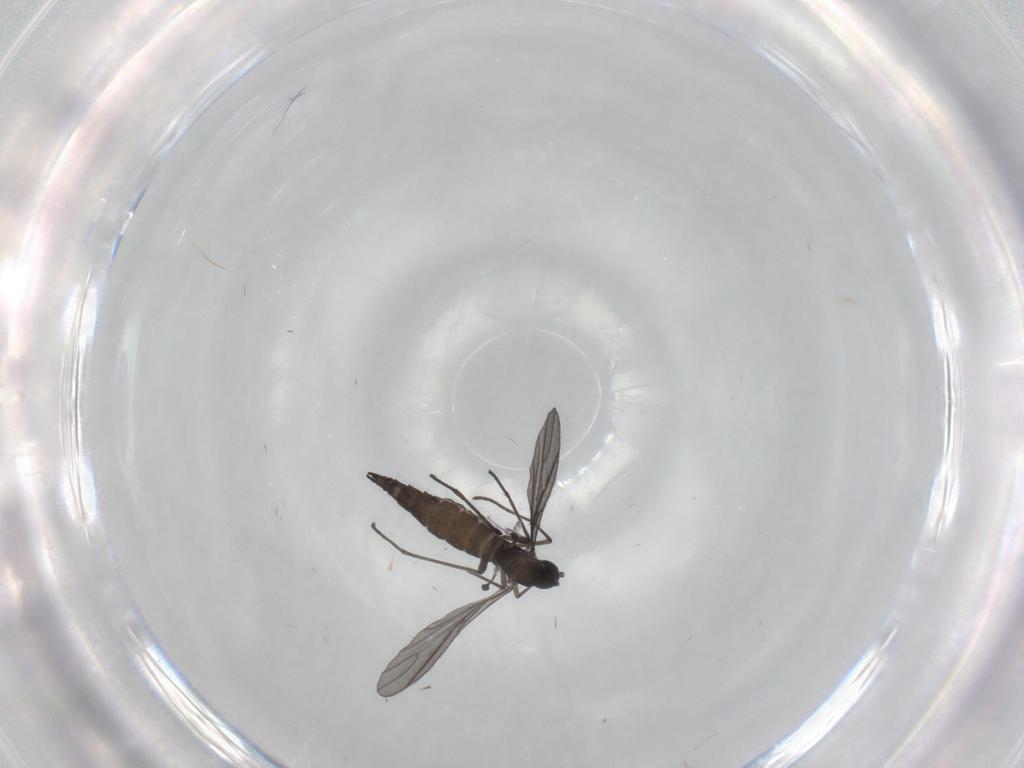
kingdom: Animalia
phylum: Arthropoda
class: Insecta
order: Diptera
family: Sciaridae
